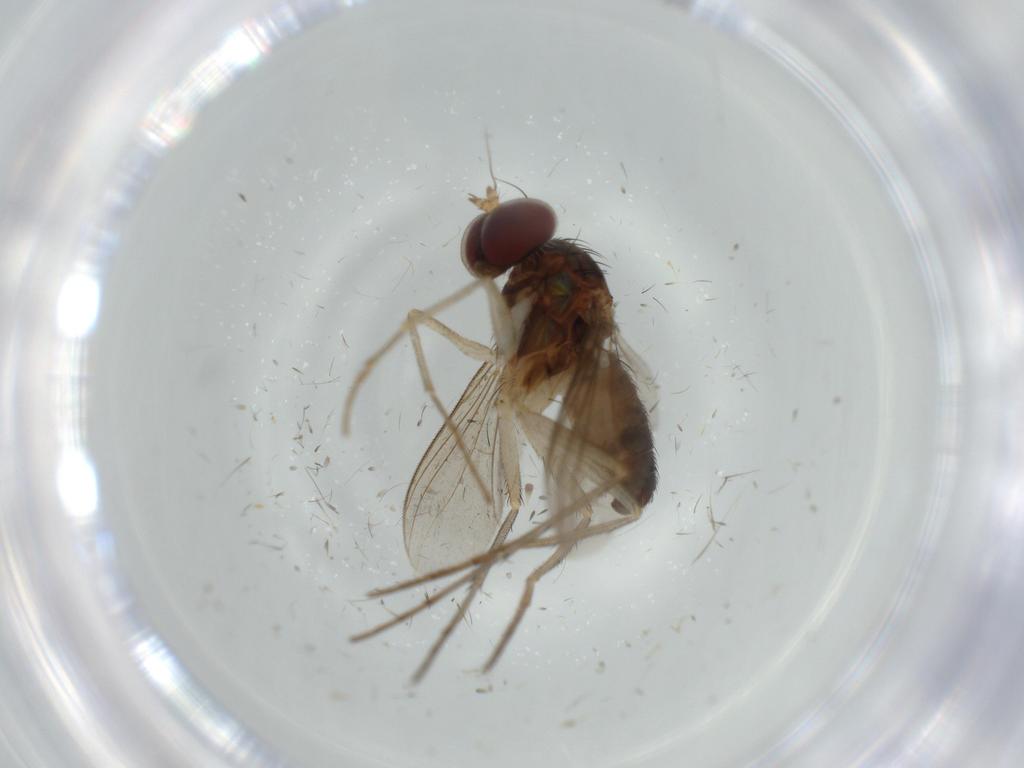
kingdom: Animalia
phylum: Arthropoda
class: Insecta
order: Diptera
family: Dolichopodidae
